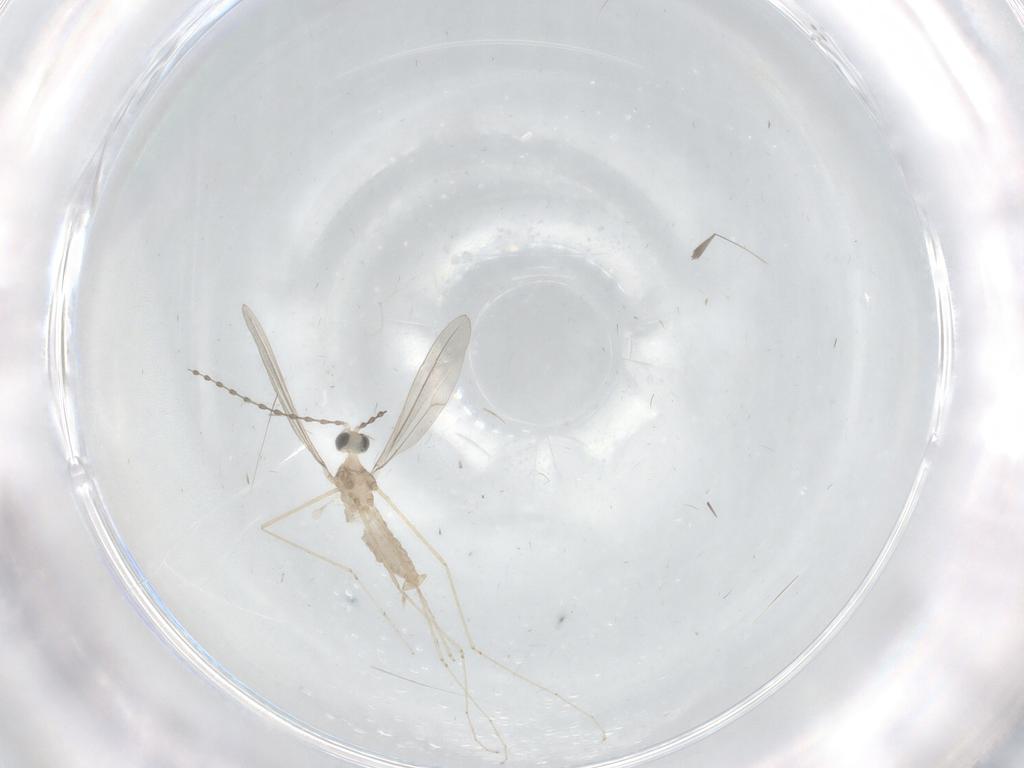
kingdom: Animalia
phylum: Arthropoda
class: Insecta
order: Diptera
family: Cecidomyiidae
